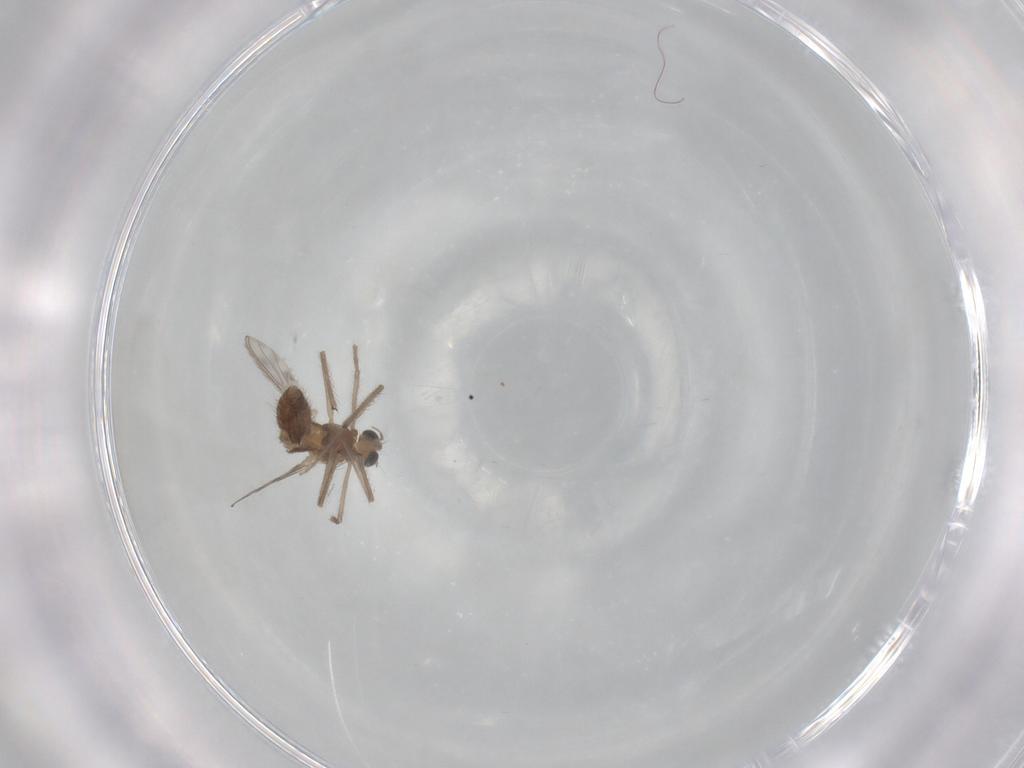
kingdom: Animalia
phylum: Arthropoda
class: Insecta
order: Diptera
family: Chironomidae
